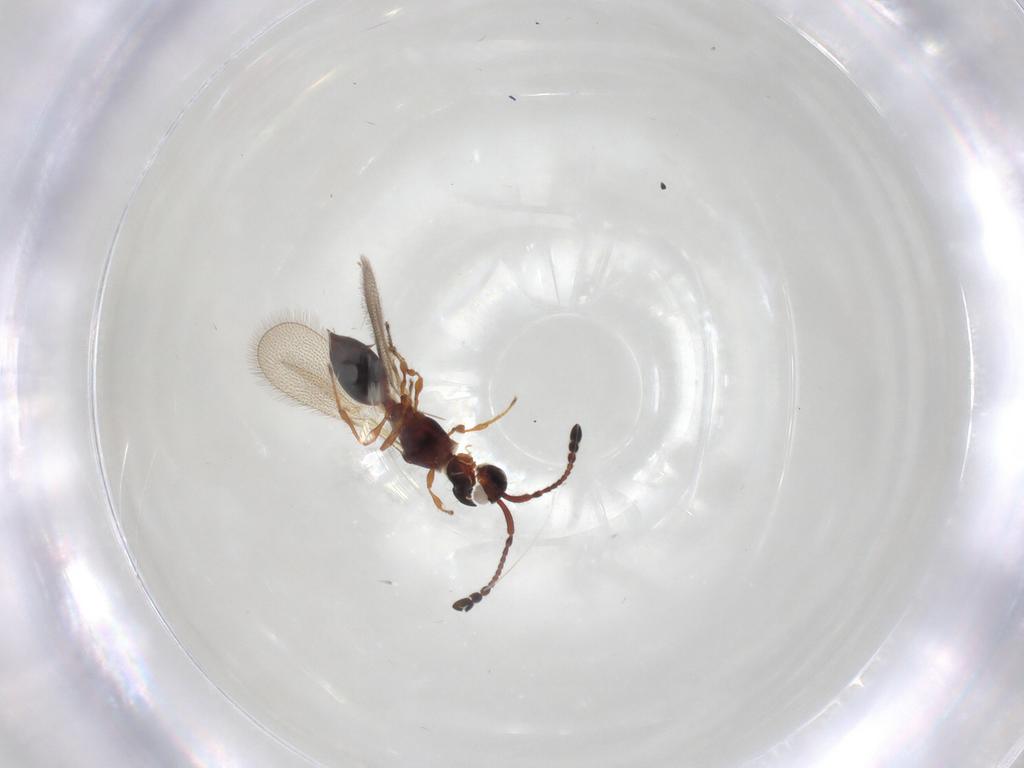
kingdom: Animalia
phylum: Arthropoda
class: Insecta
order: Hymenoptera
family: Diapriidae
